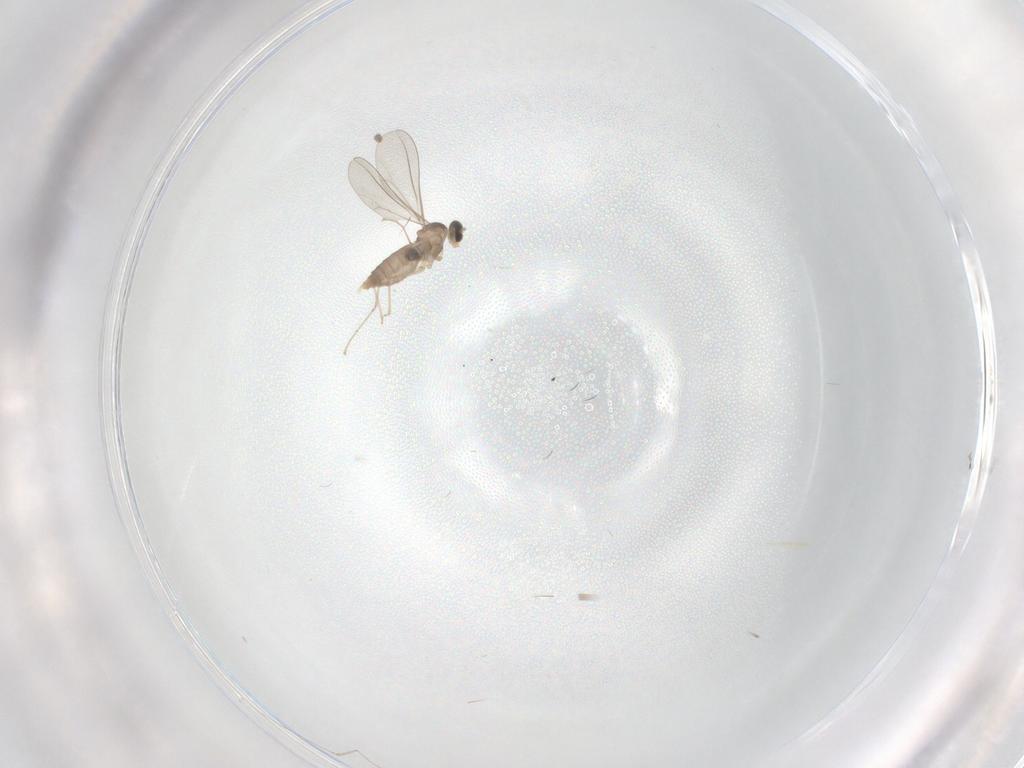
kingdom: Animalia
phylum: Arthropoda
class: Insecta
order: Diptera
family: Cecidomyiidae
